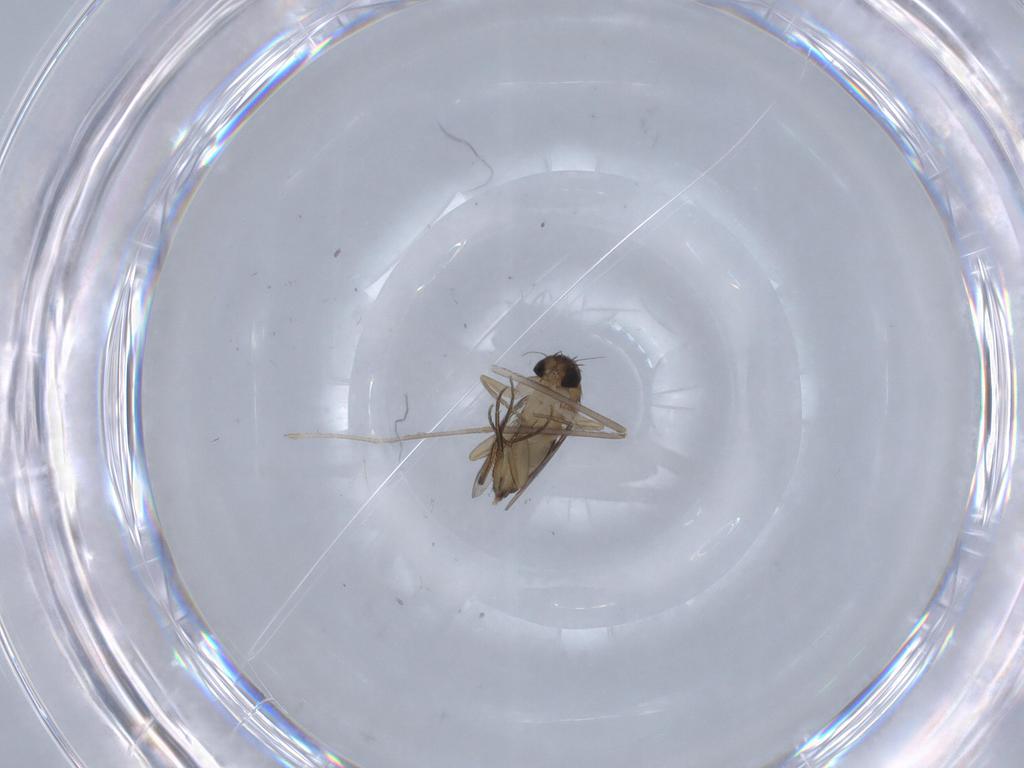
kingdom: Animalia
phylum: Arthropoda
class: Insecta
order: Diptera
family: Phoridae
